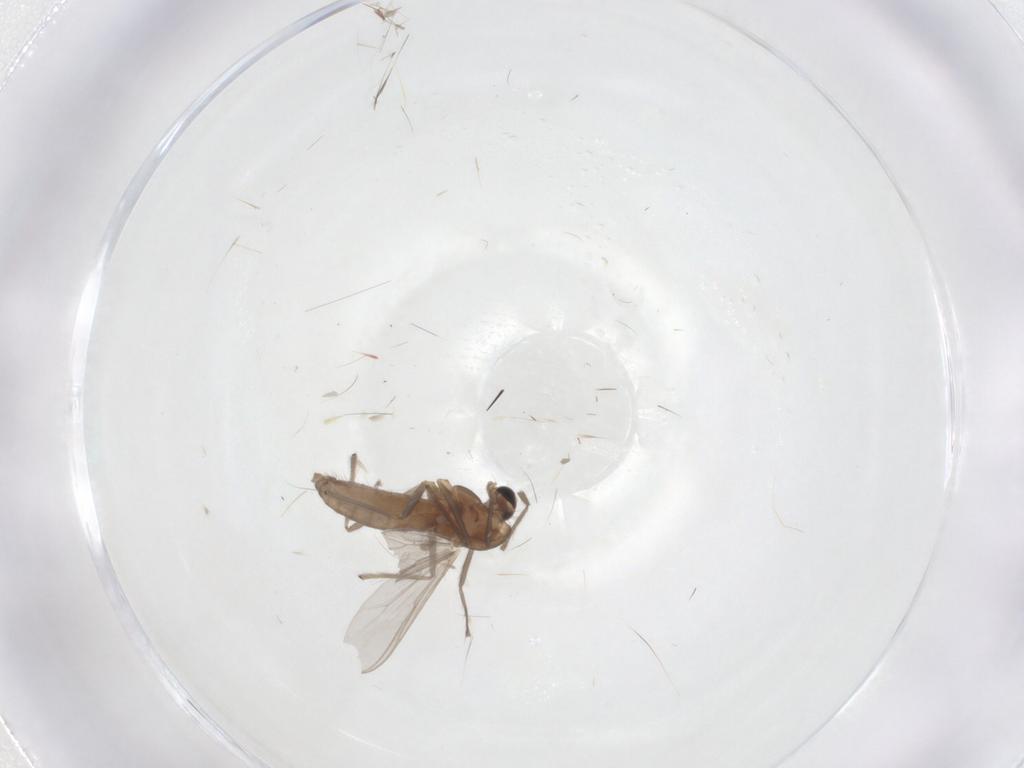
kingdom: Animalia
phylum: Arthropoda
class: Insecta
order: Diptera
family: Chironomidae
